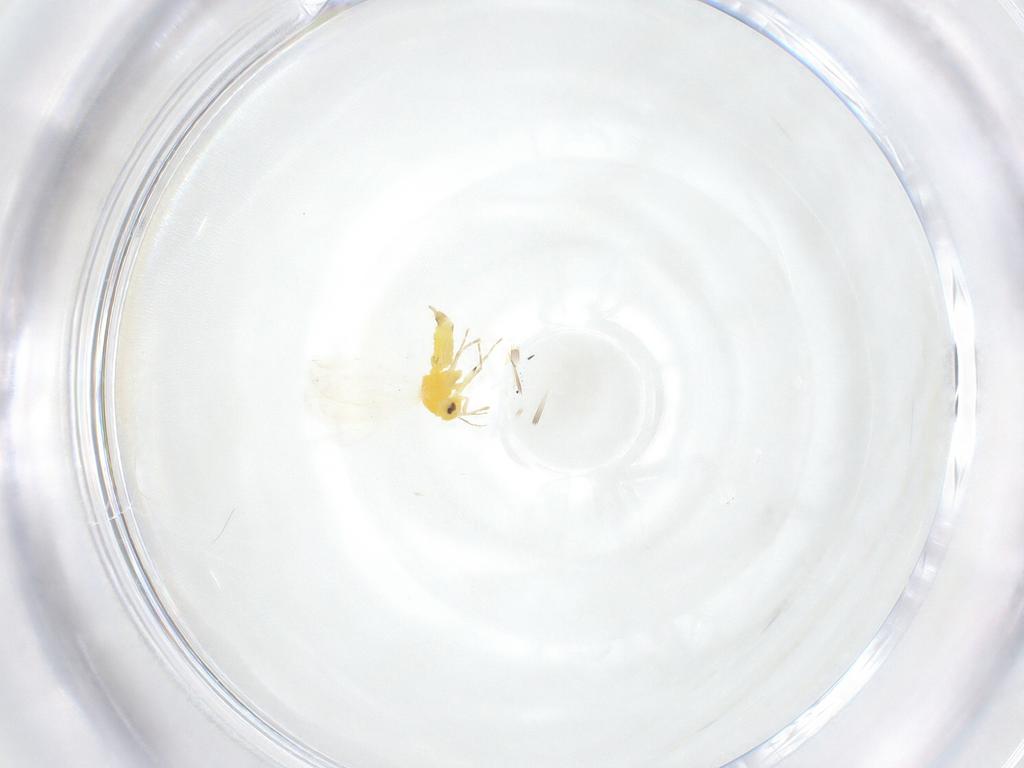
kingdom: Animalia
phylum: Arthropoda
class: Insecta
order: Hemiptera
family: Aleyrodidae
